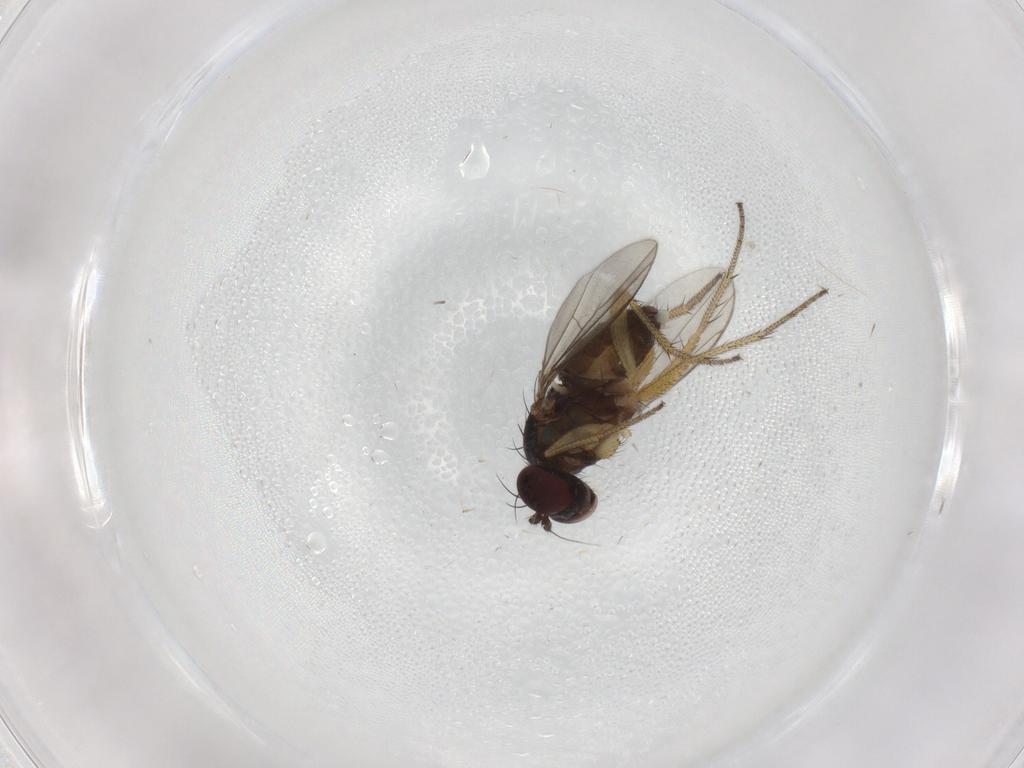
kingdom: Animalia
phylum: Arthropoda
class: Insecta
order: Diptera
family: Dolichopodidae
